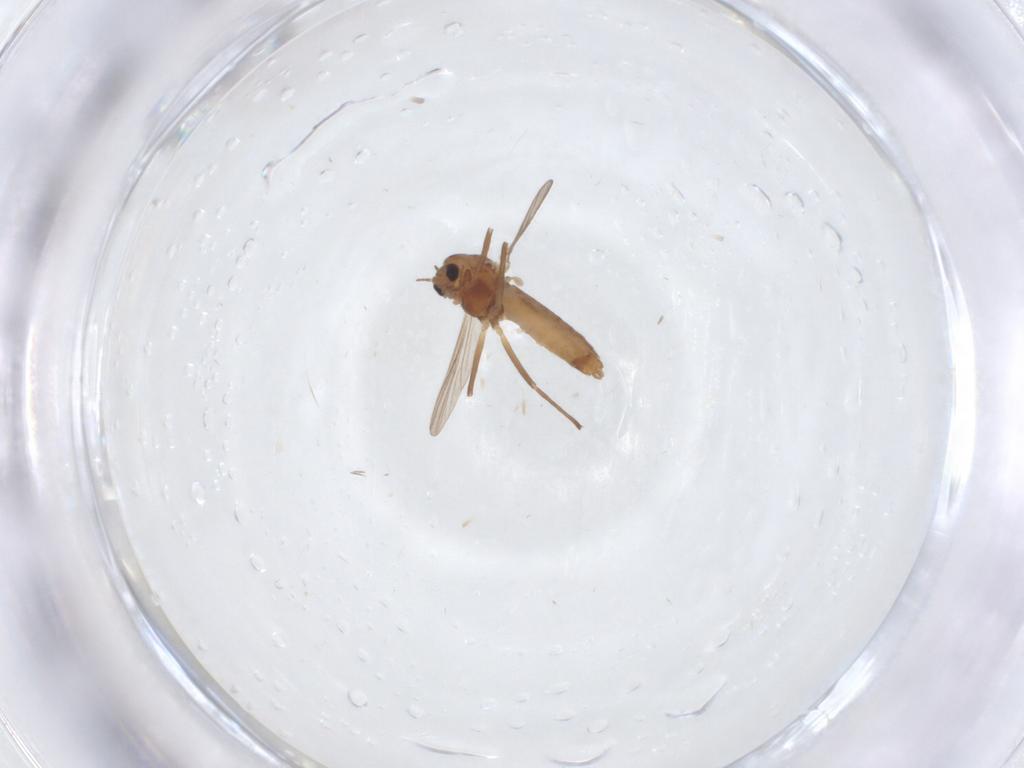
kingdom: Animalia
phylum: Arthropoda
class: Insecta
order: Diptera
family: Chironomidae
